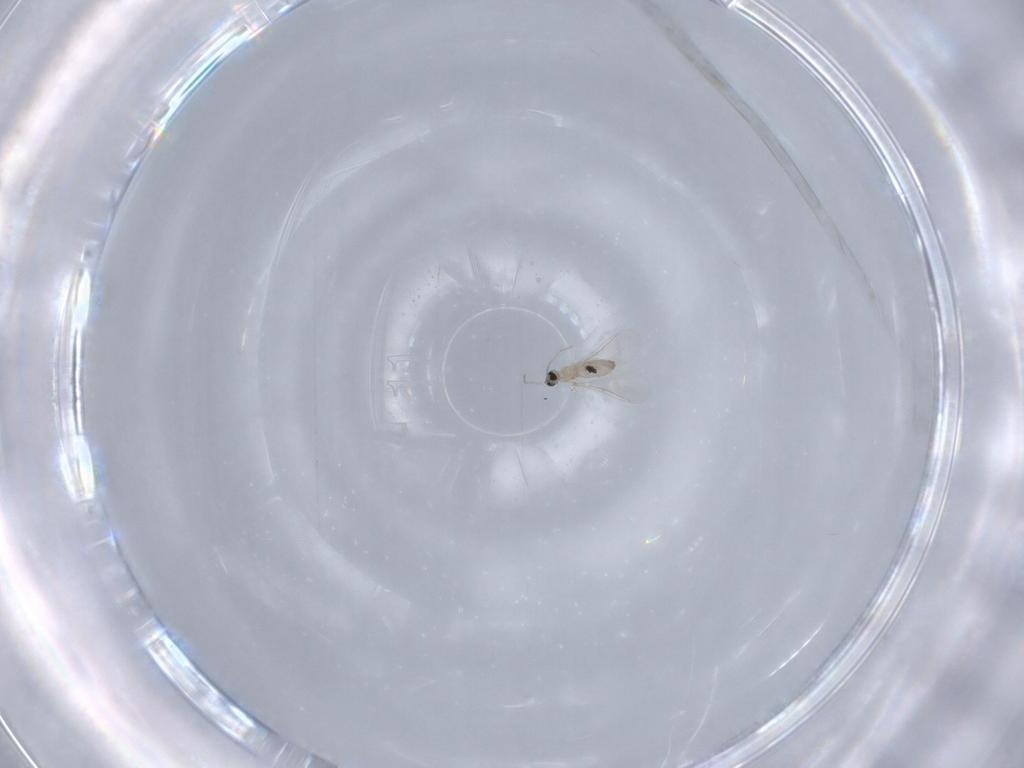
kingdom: Animalia
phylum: Arthropoda
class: Insecta
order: Diptera
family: Cecidomyiidae
